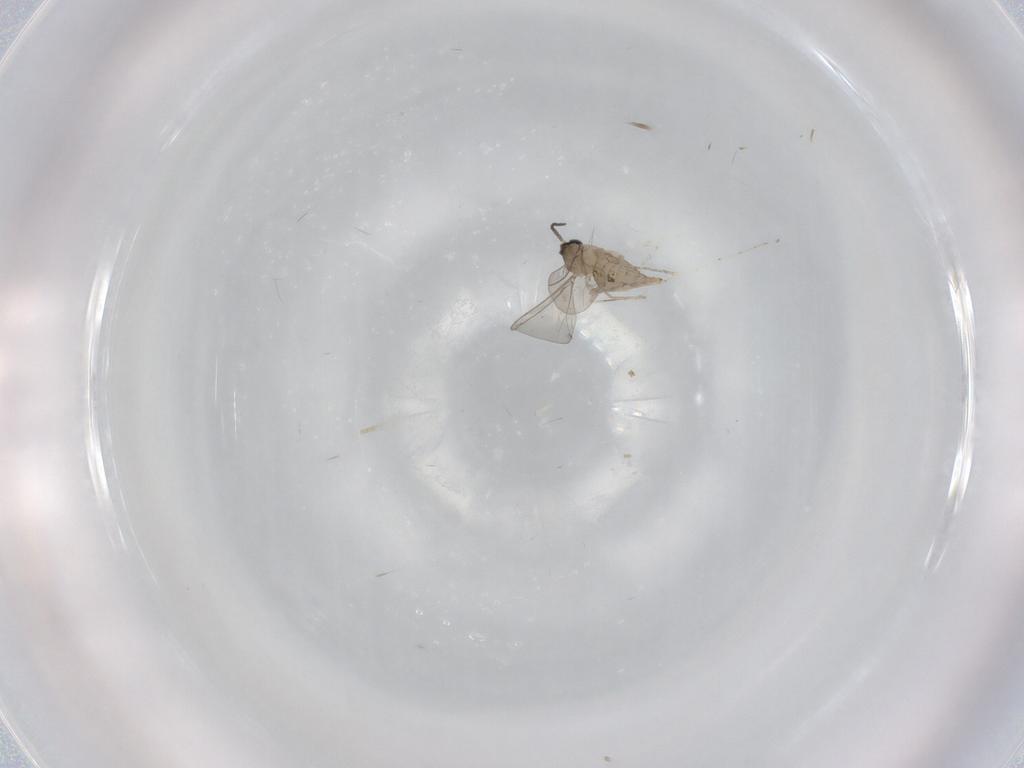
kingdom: Animalia
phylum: Arthropoda
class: Insecta
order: Diptera
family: Cecidomyiidae
